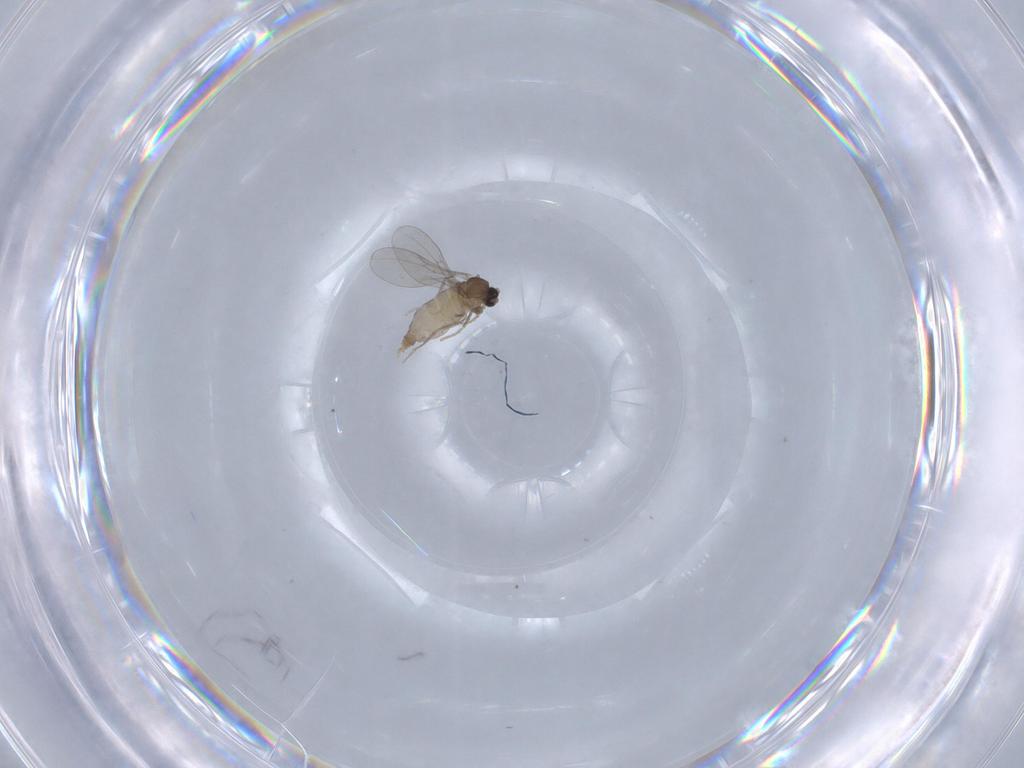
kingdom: Animalia
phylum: Arthropoda
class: Insecta
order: Diptera
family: Cecidomyiidae
